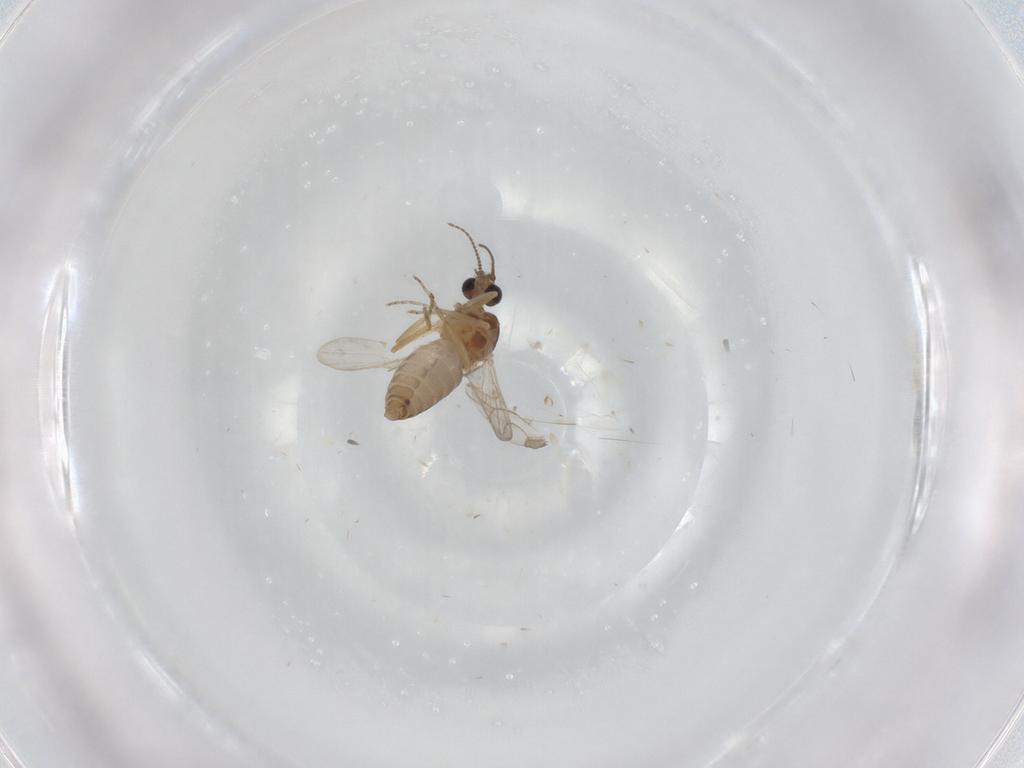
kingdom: Animalia
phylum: Arthropoda
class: Insecta
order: Diptera
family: Ceratopogonidae
